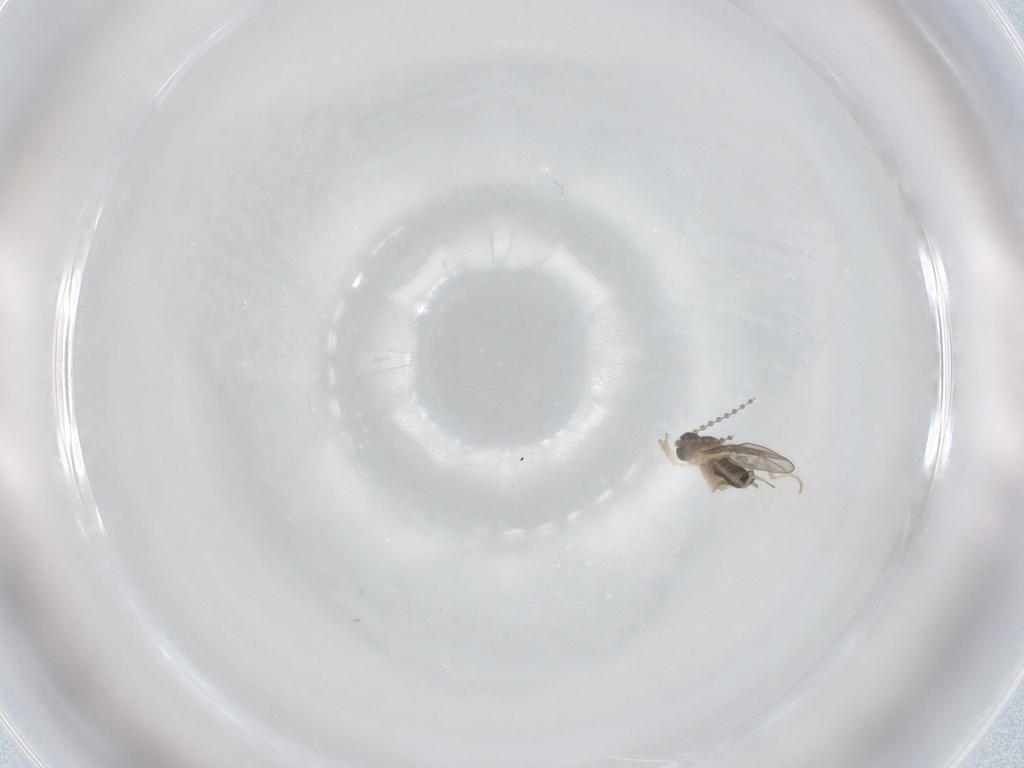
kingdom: Animalia
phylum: Arthropoda
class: Insecta
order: Diptera
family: Cecidomyiidae
